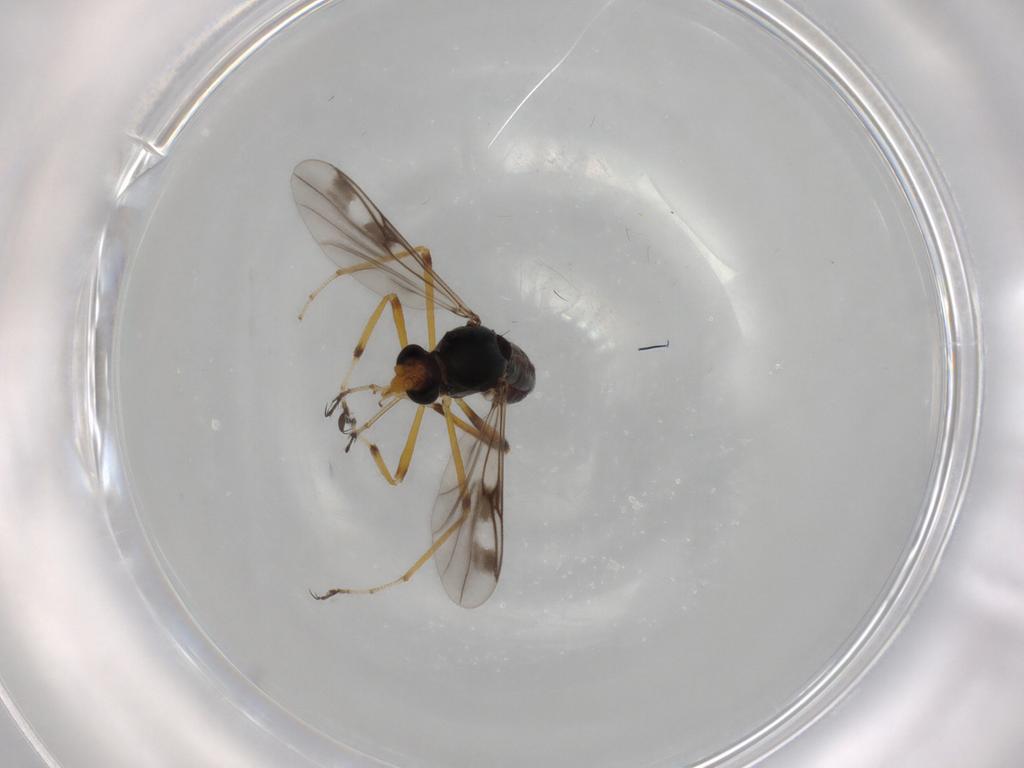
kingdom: Animalia
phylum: Arthropoda
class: Insecta
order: Diptera
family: Ceratopogonidae
